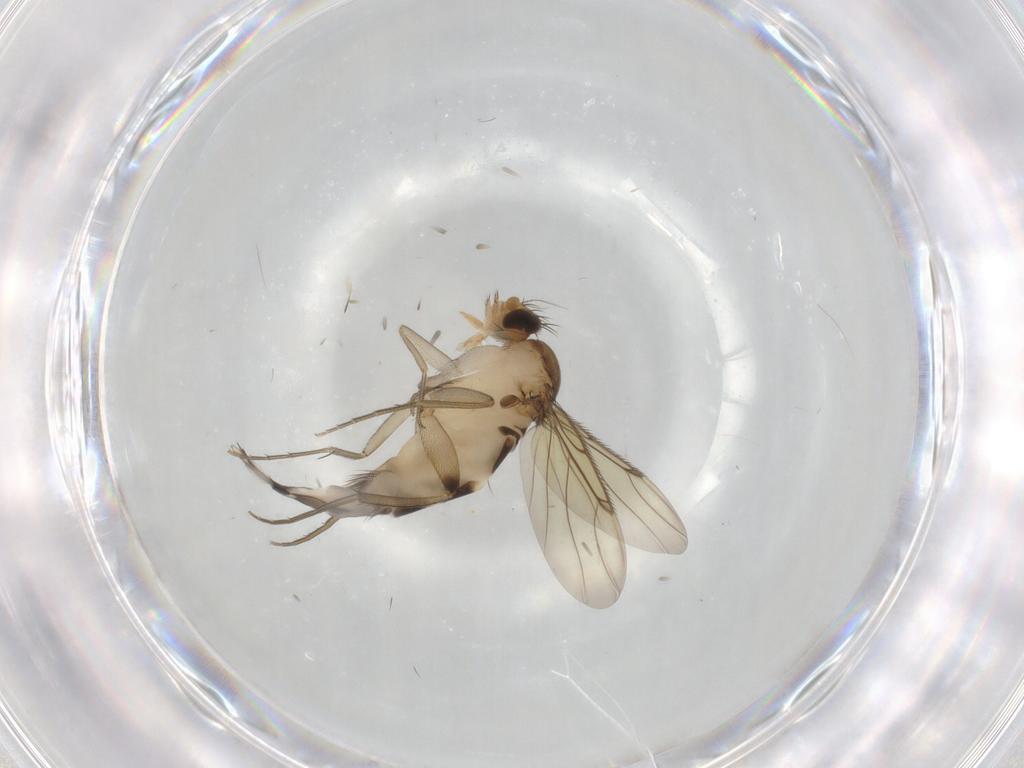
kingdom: Animalia
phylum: Arthropoda
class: Insecta
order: Diptera
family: Phoridae
